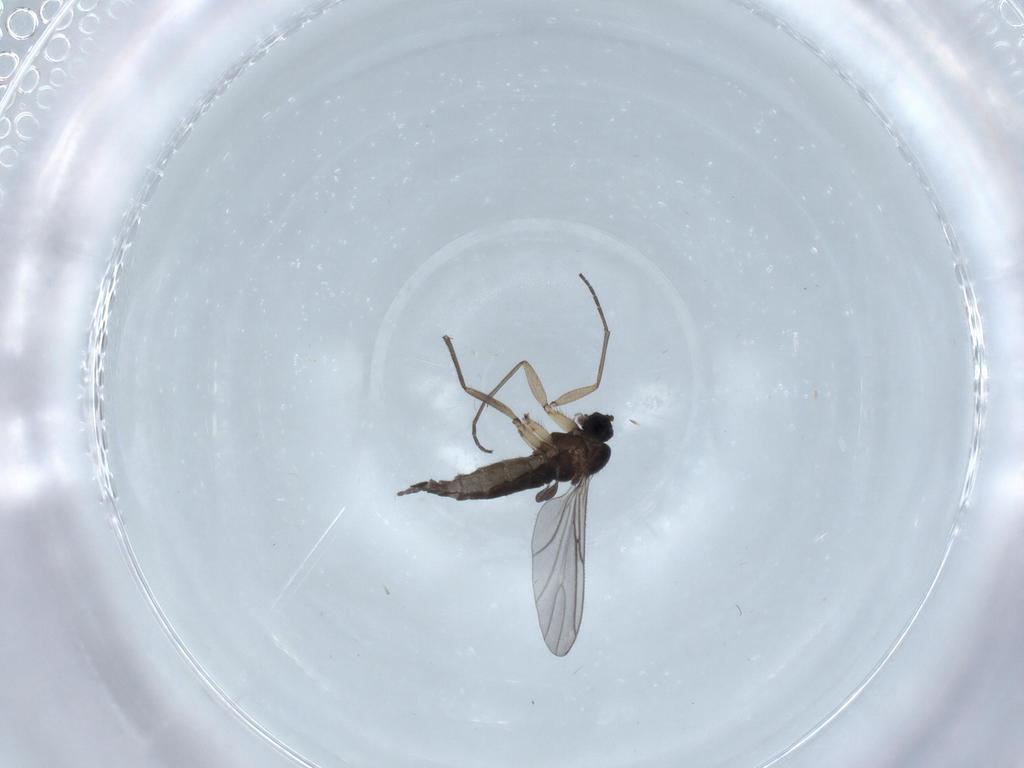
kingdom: Animalia
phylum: Arthropoda
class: Insecta
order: Diptera
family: Sciaridae
